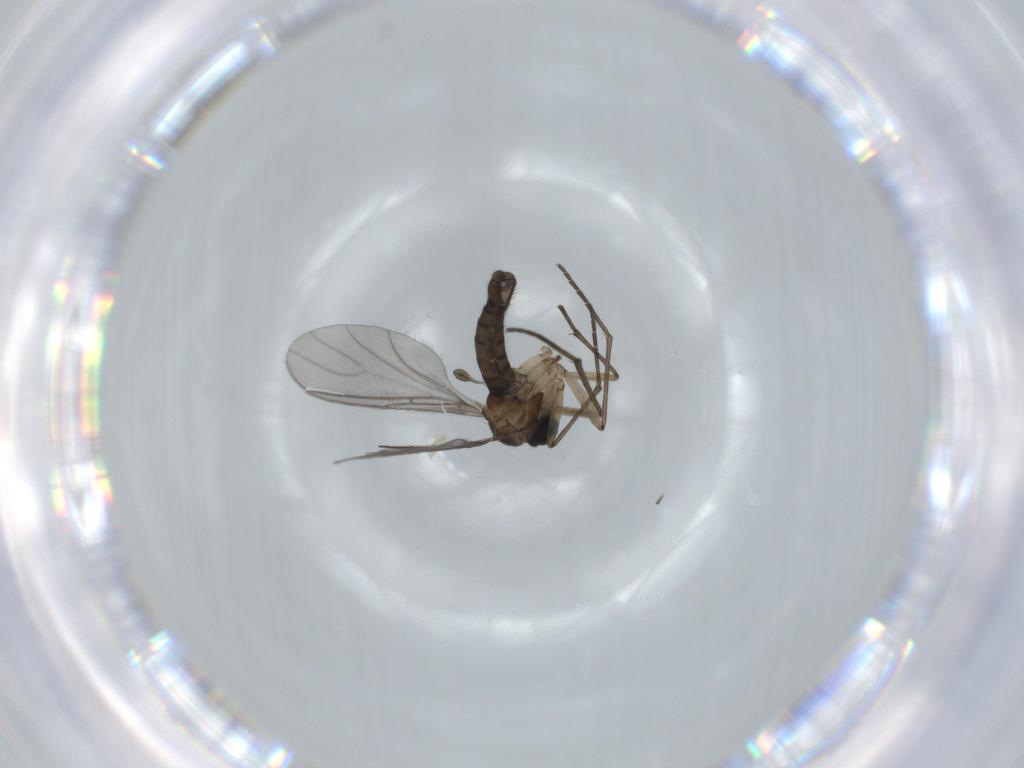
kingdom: Animalia
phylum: Arthropoda
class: Insecta
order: Diptera
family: Sciaridae
